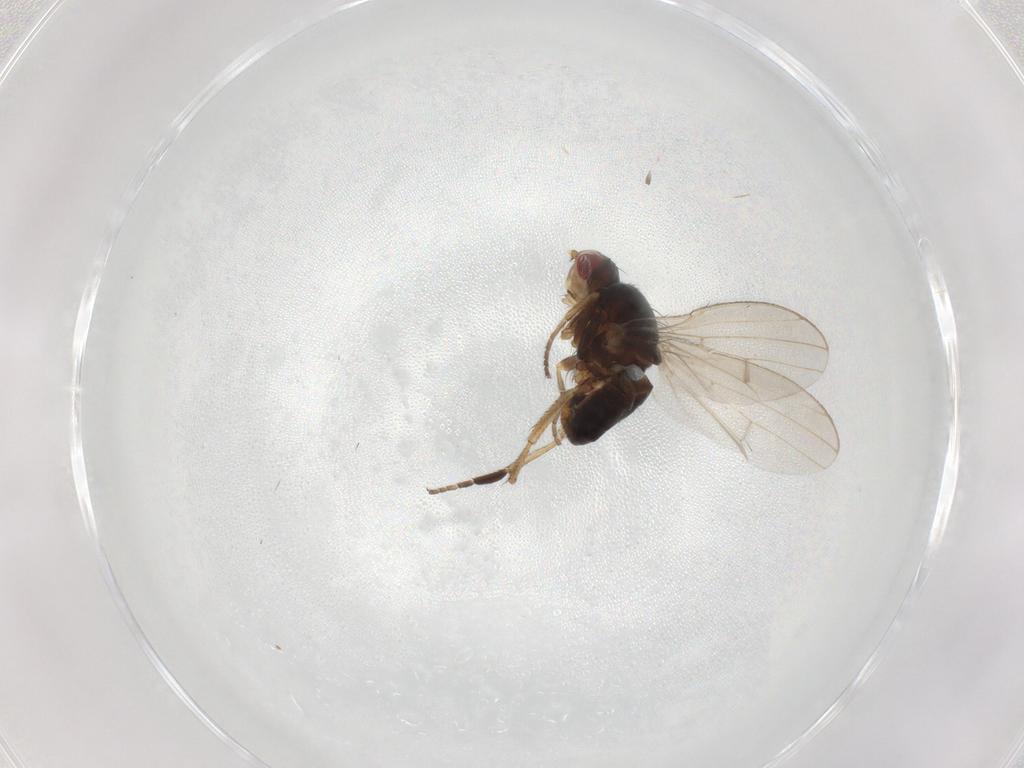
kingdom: Animalia
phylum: Arthropoda
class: Insecta
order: Diptera
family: Heleomyzidae
